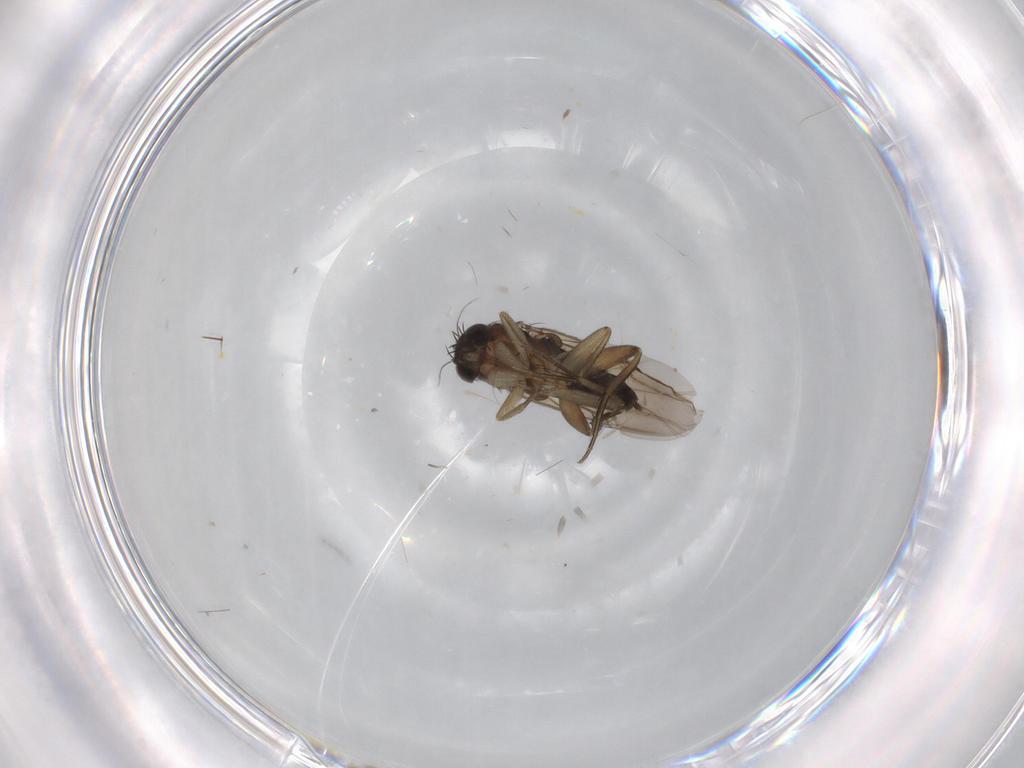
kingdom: Animalia
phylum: Arthropoda
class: Insecta
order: Diptera
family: Phoridae
